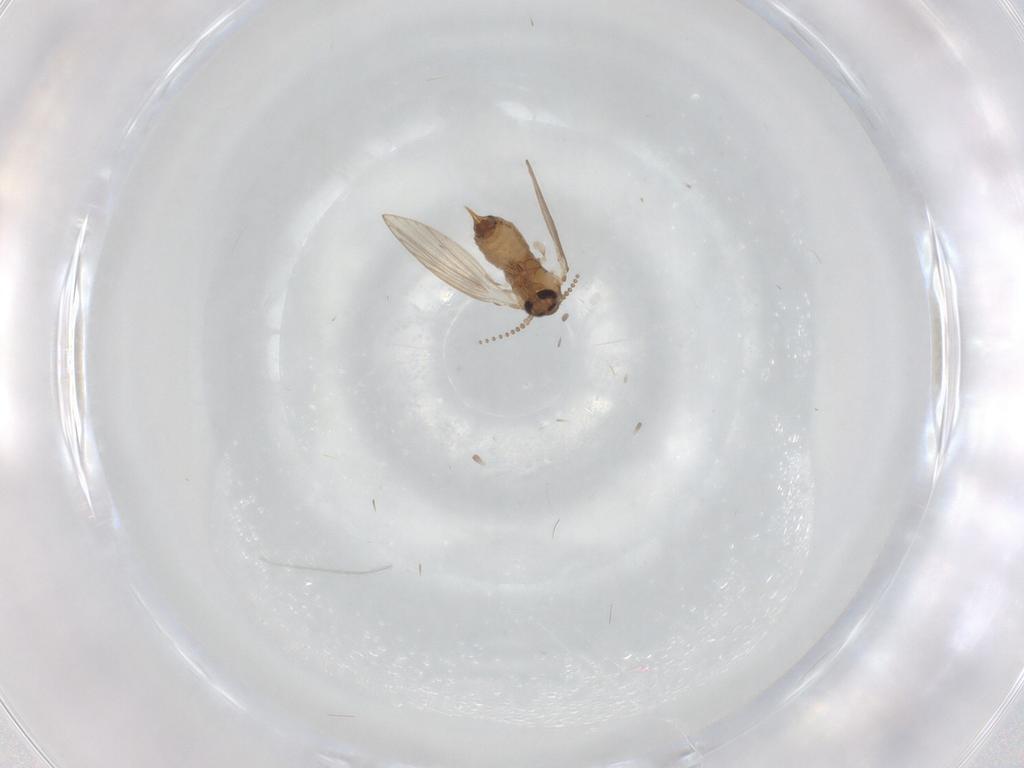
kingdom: Animalia
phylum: Arthropoda
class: Insecta
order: Diptera
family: Psychodidae
